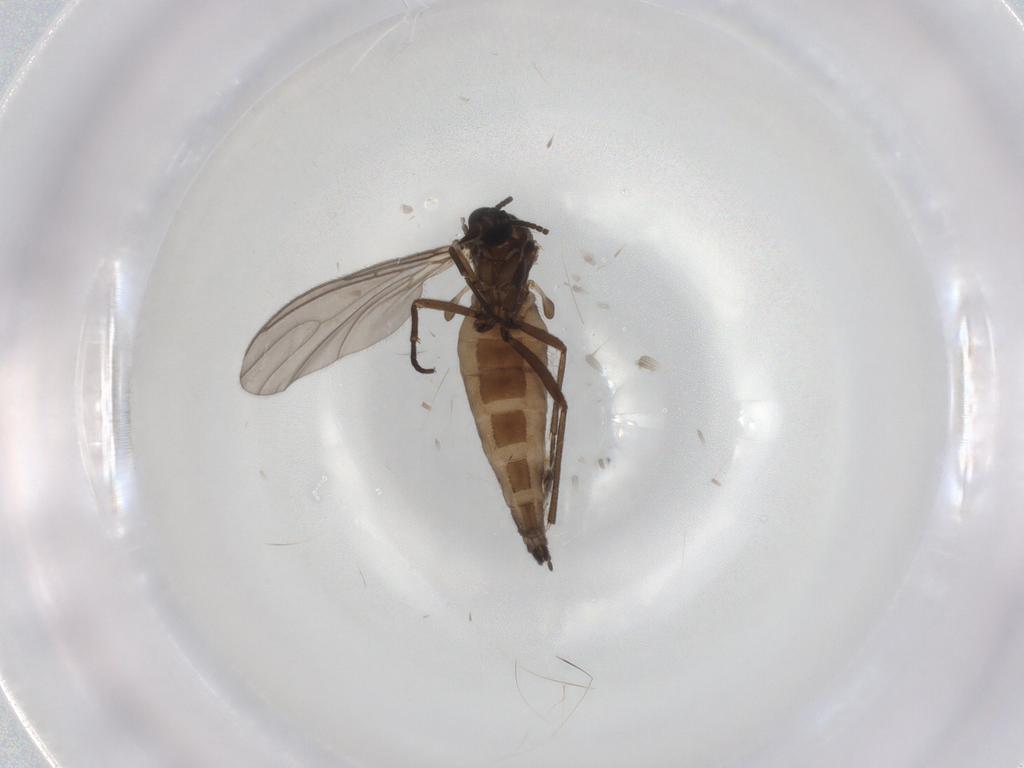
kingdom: Animalia
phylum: Arthropoda
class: Insecta
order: Diptera
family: Sciaridae
